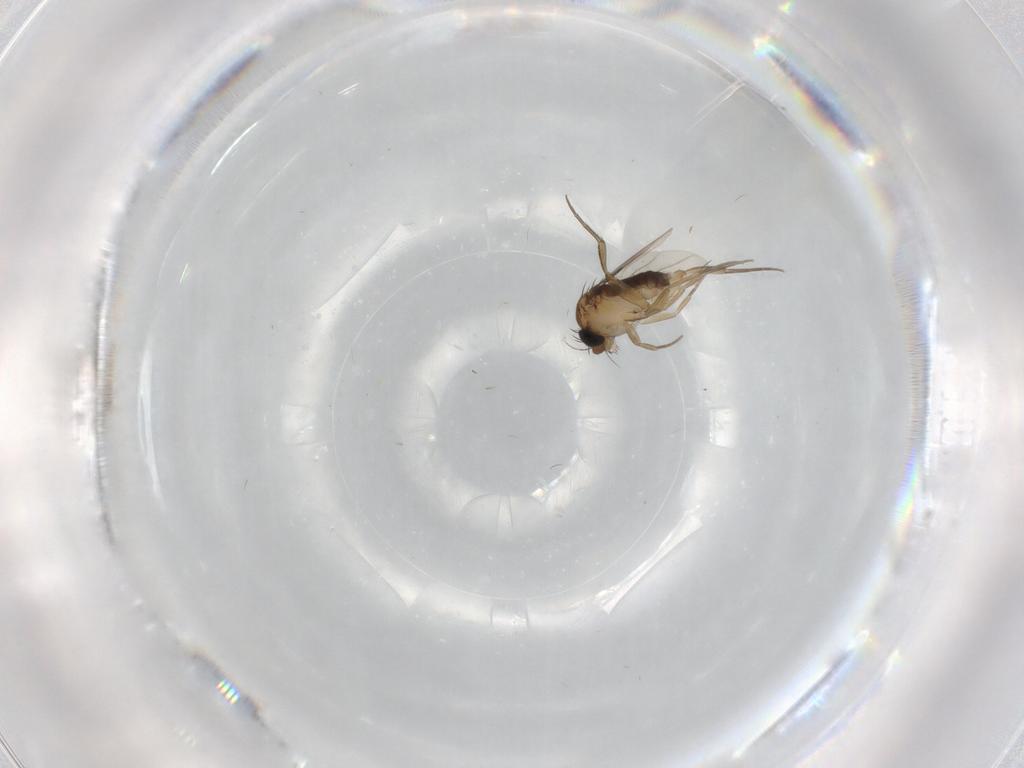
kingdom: Animalia
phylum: Arthropoda
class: Insecta
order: Diptera
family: Phoridae
